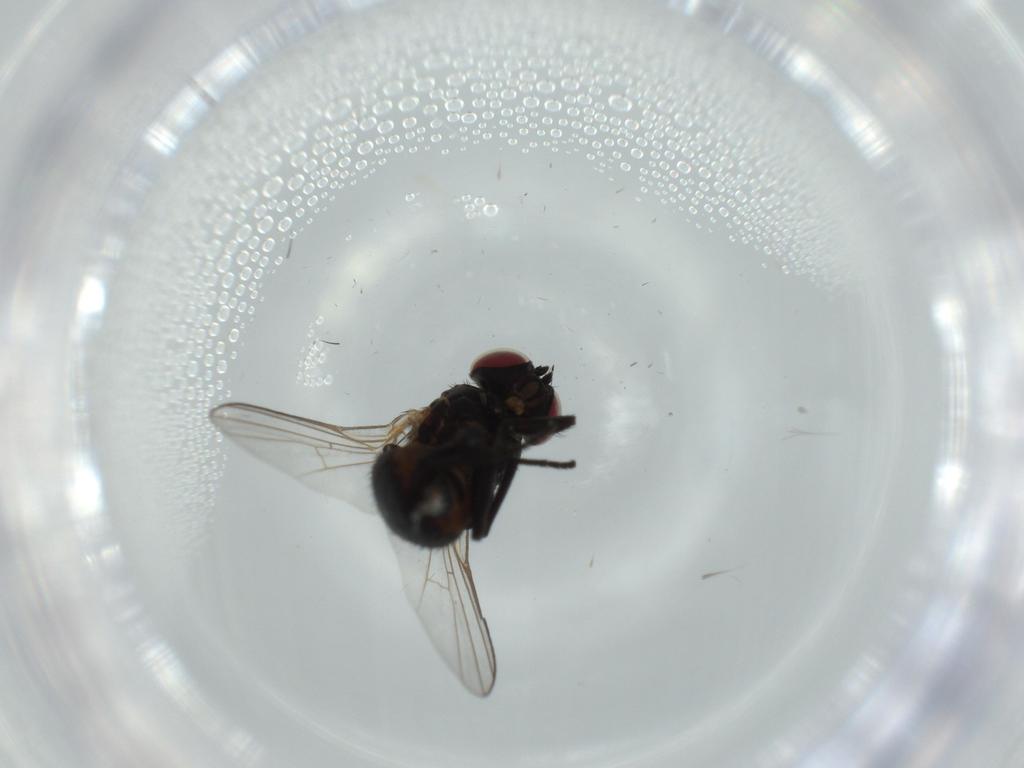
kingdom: Animalia
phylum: Arthropoda
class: Insecta
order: Diptera
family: Agromyzidae
